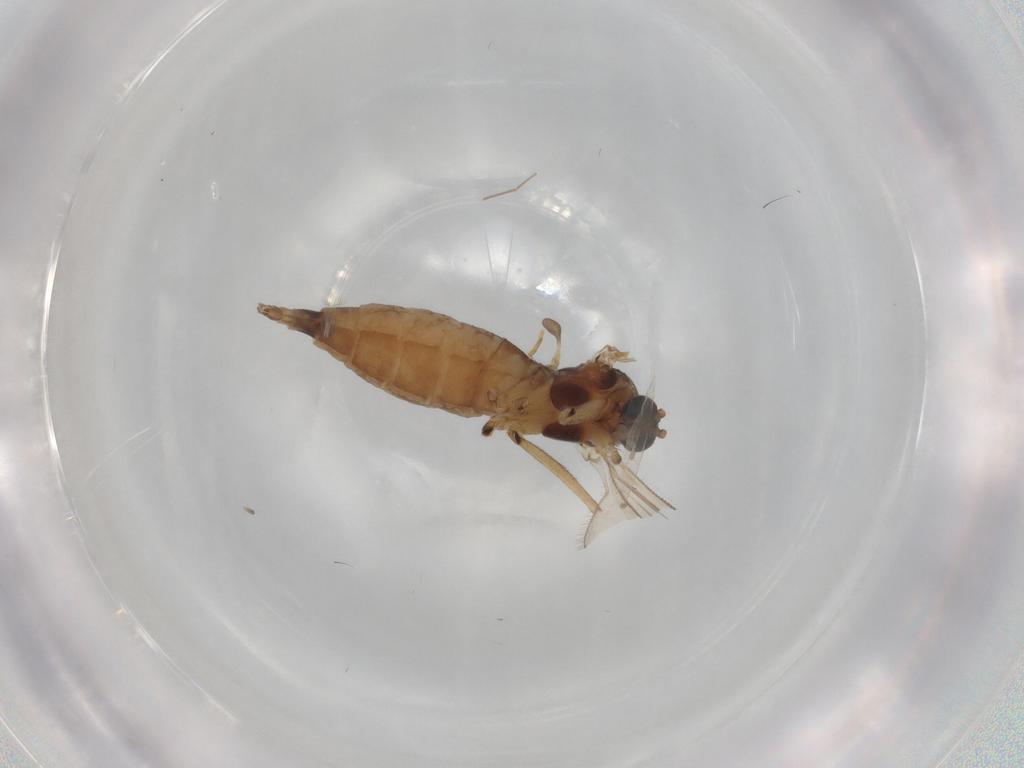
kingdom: Animalia
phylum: Arthropoda
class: Insecta
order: Diptera
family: Sciaridae
